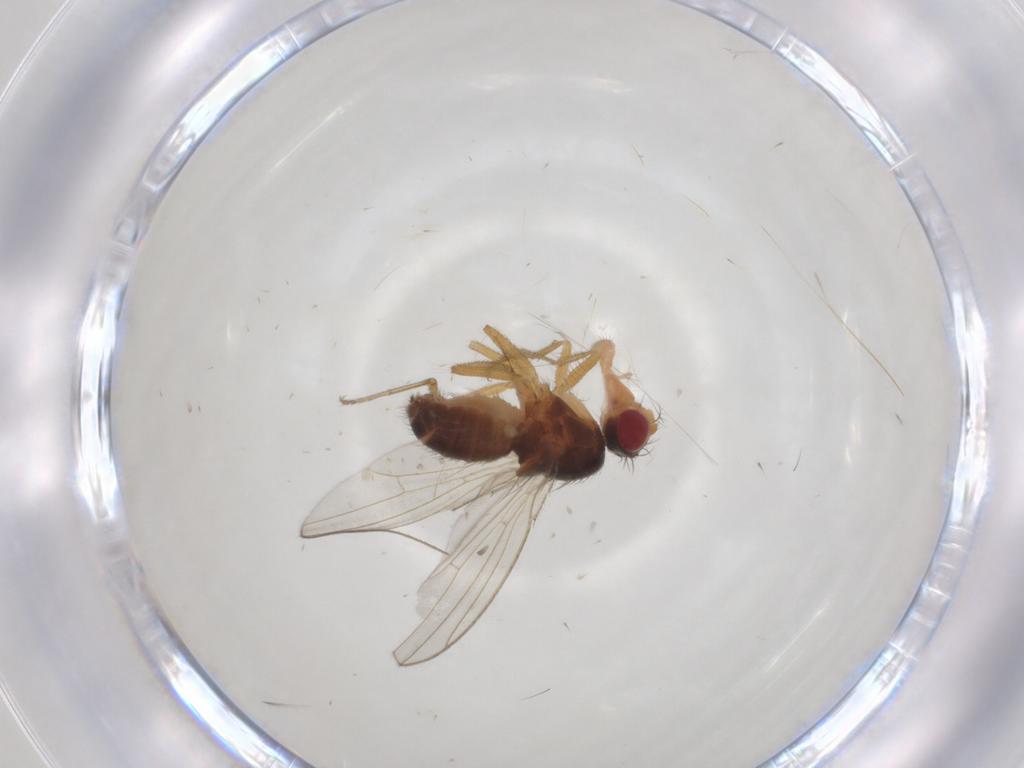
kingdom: Animalia
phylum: Arthropoda
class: Insecta
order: Diptera
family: Drosophilidae
